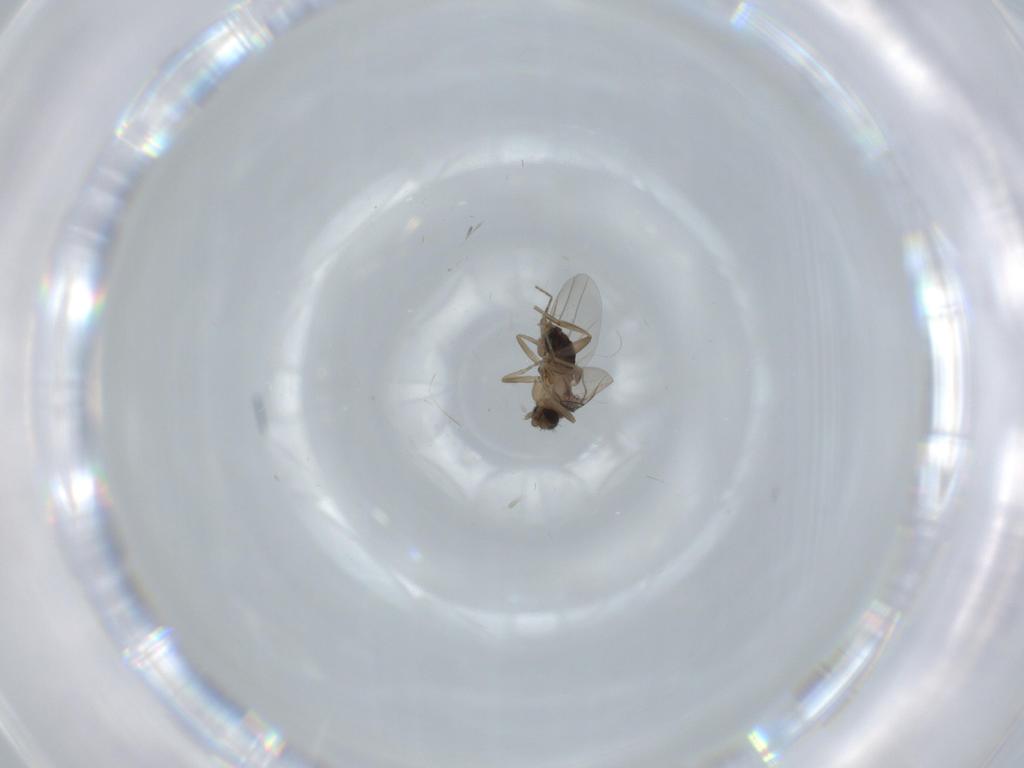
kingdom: Animalia
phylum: Arthropoda
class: Insecta
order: Diptera
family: Phoridae
